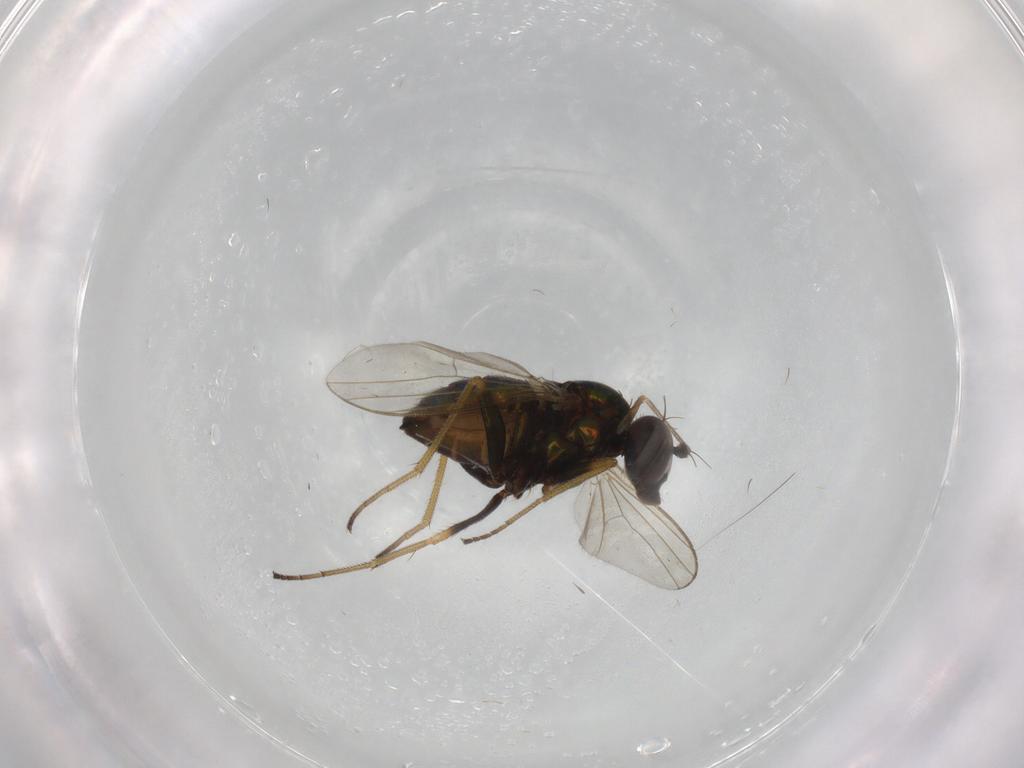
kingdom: Animalia
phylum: Arthropoda
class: Insecta
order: Diptera
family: Dolichopodidae
